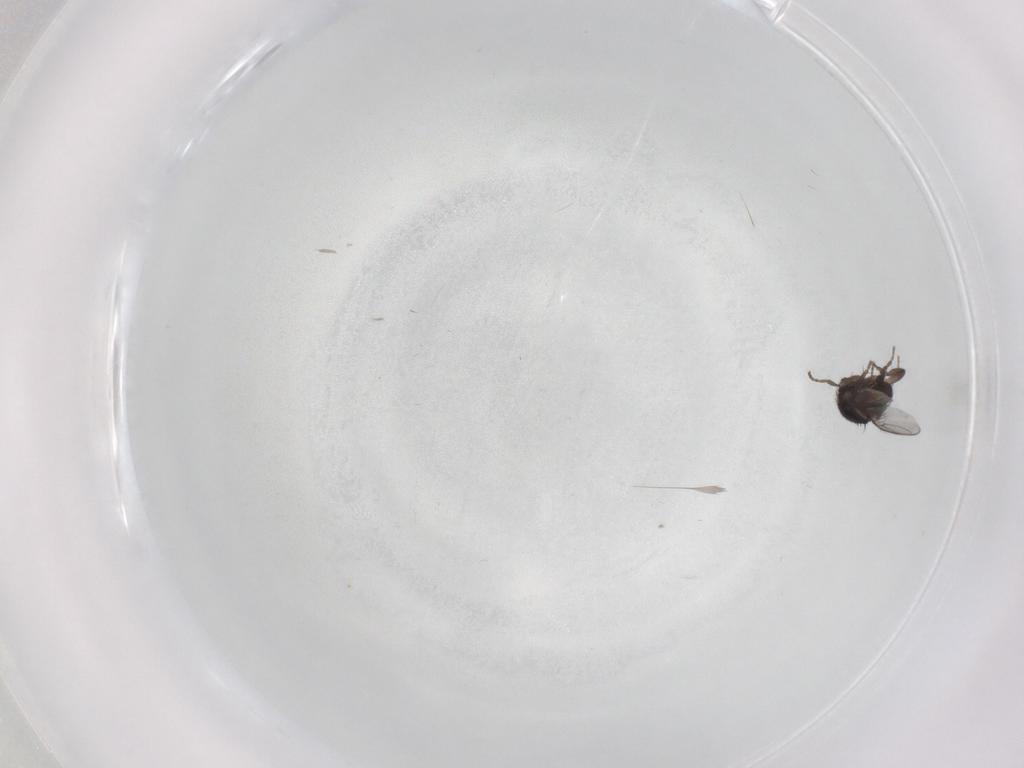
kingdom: Animalia
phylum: Arthropoda
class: Insecta
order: Diptera
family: Sphaeroceridae
